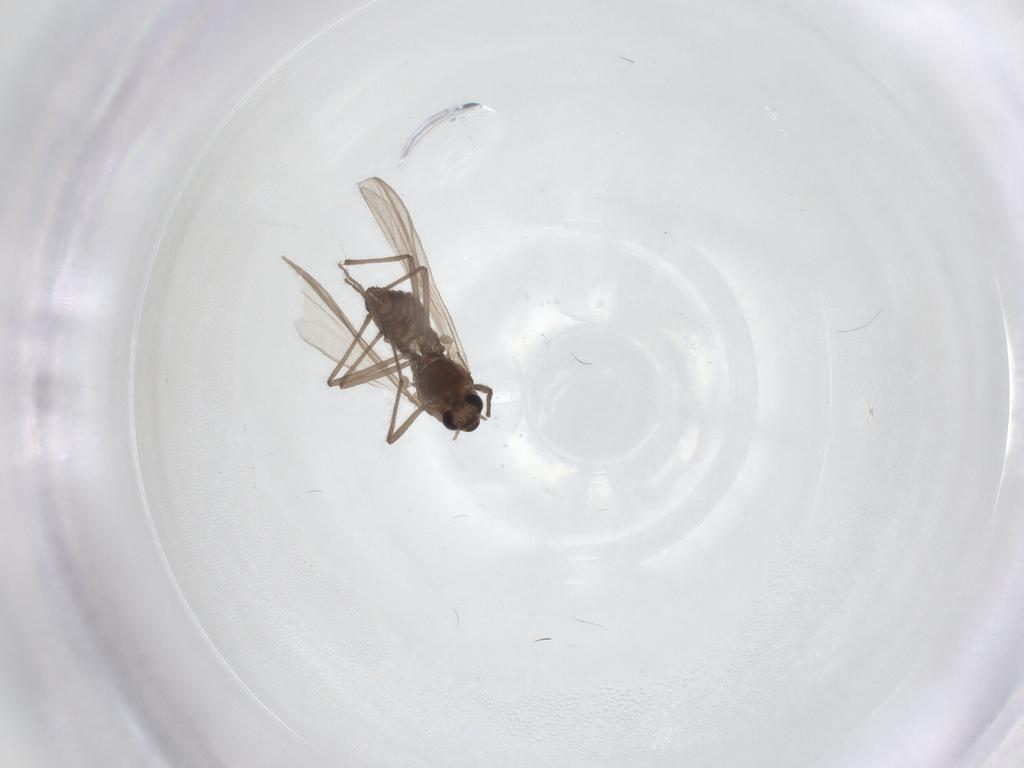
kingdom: Animalia
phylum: Arthropoda
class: Insecta
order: Diptera
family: Chironomidae
